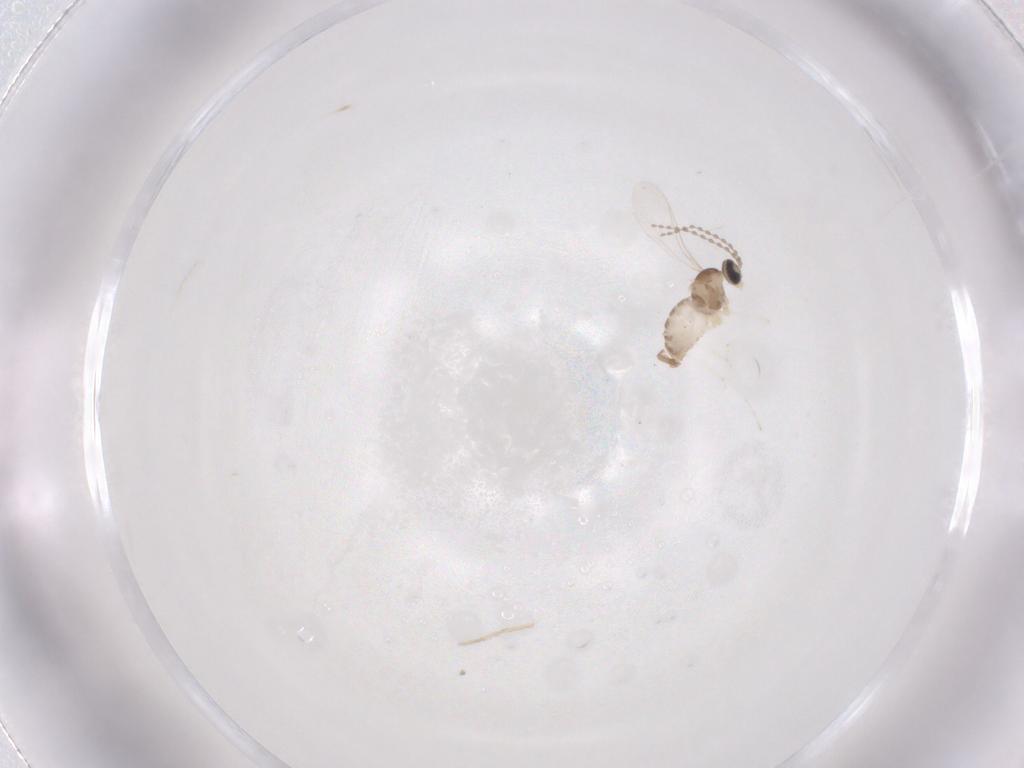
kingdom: Animalia
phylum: Arthropoda
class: Insecta
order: Diptera
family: Cecidomyiidae
